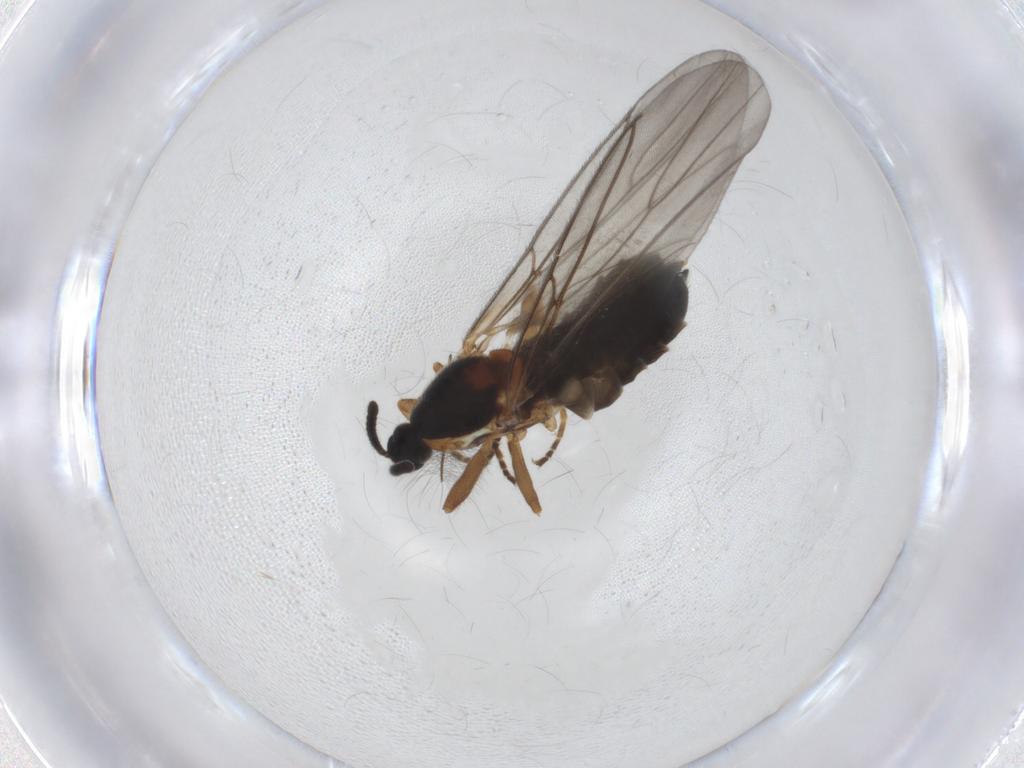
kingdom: Animalia
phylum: Arthropoda
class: Insecta
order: Diptera
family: Scatopsidae
